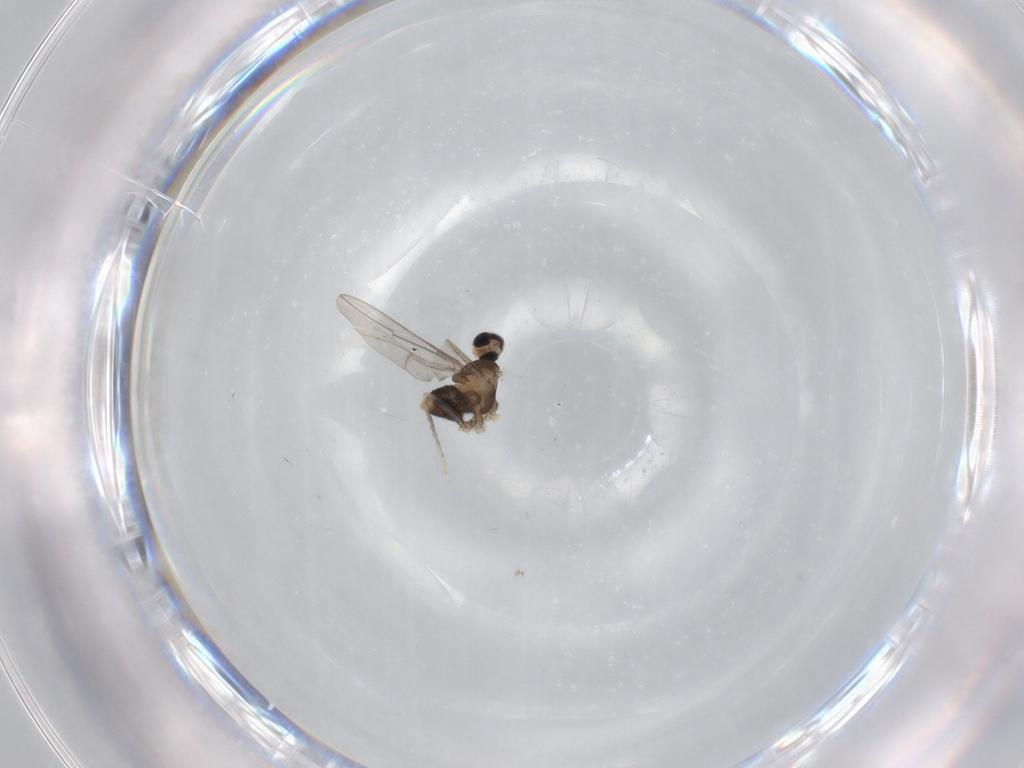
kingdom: Animalia
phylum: Arthropoda
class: Insecta
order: Diptera
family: Cecidomyiidae
